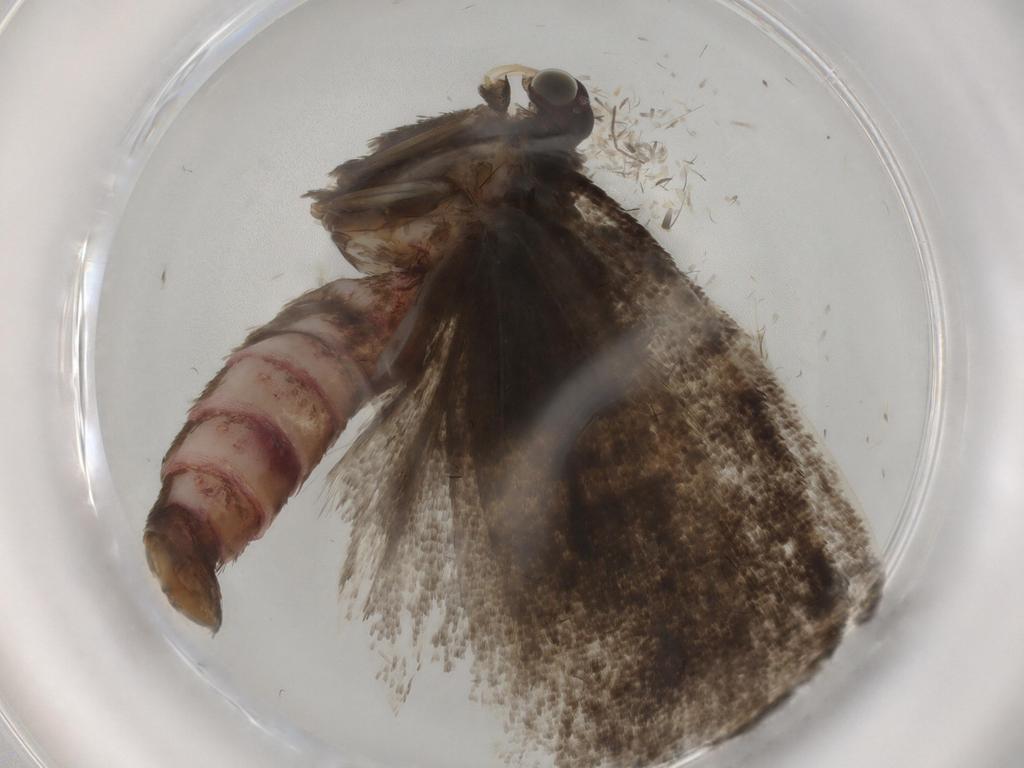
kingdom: Animalia
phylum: Arthropoda
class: Insecta
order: Lepidoptera
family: Tortricidae
